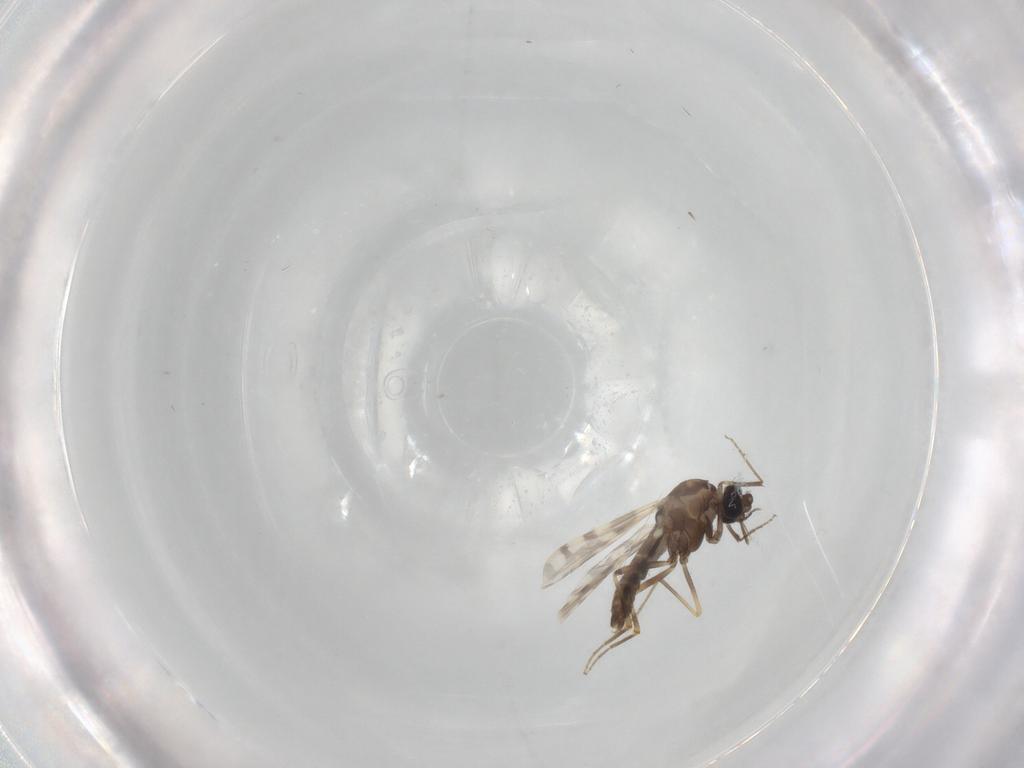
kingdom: Animalia
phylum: Arthropoda
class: Insecta
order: Diptera
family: Ceratopogonidae
